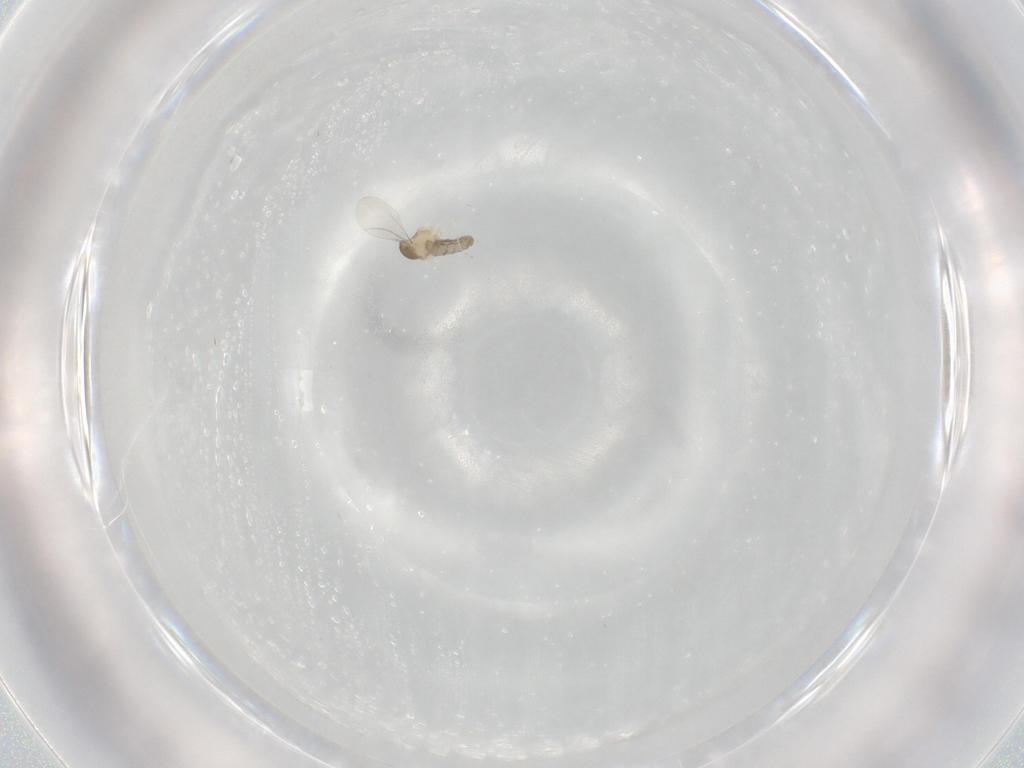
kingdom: Animalia
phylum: Arthropoda
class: Insecta
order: Diptera
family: Cecidomyiidae
